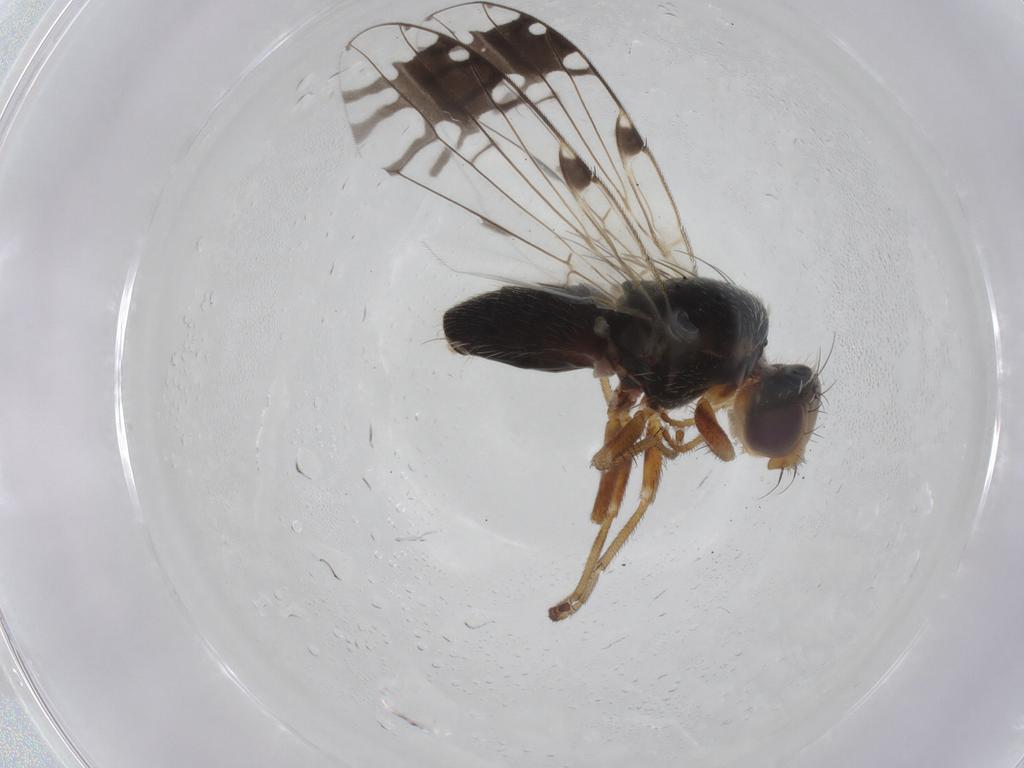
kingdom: Animalia
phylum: Arthropoda
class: Insecta
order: Diptera
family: Tephritidae
